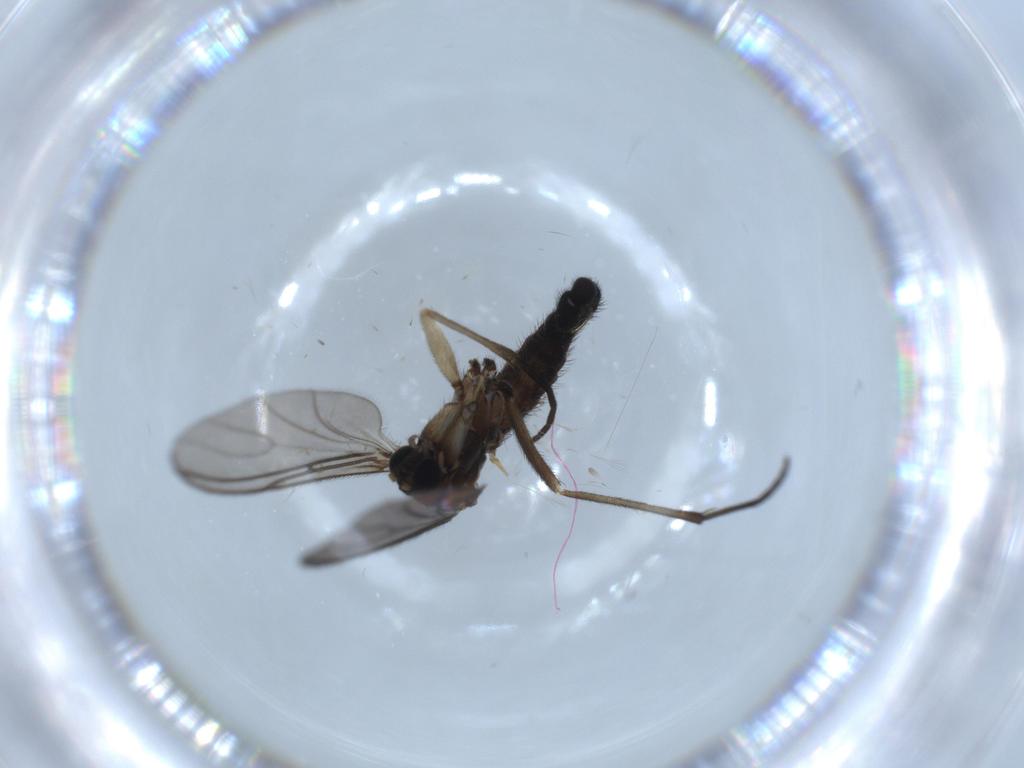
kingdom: Animalia
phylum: Arthropoda
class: Insecta
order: Diptera
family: Sciaridae
